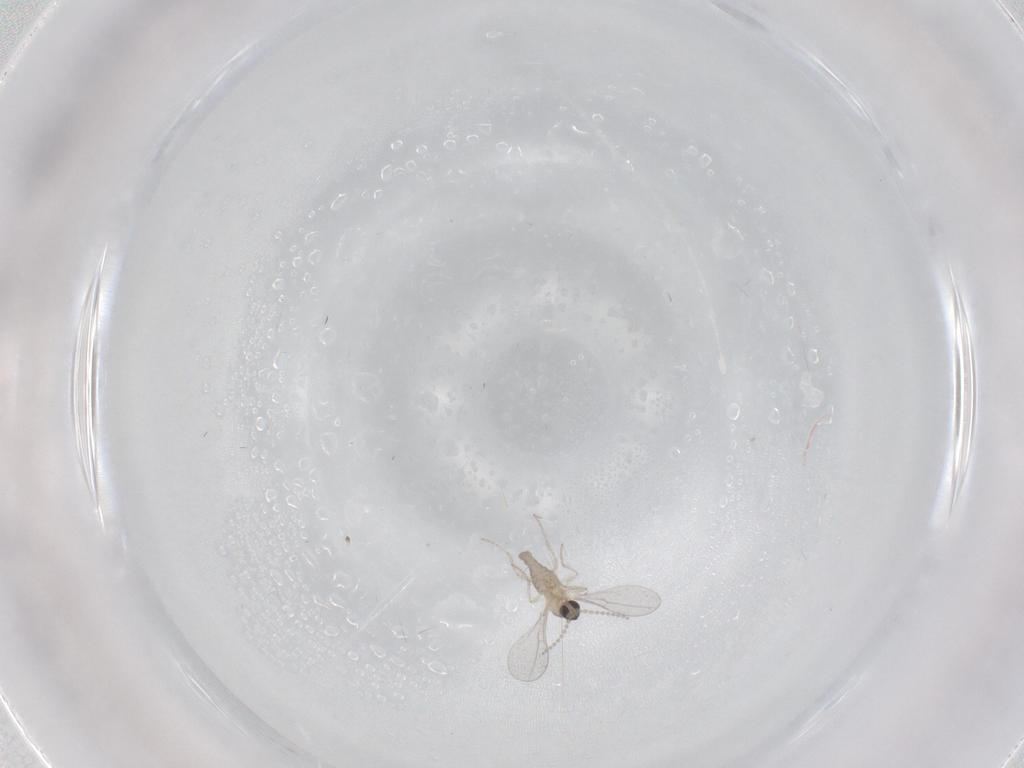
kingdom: Animalia
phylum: Arthropoda
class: Insecta
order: Diptera
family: Cecidomyiidae
